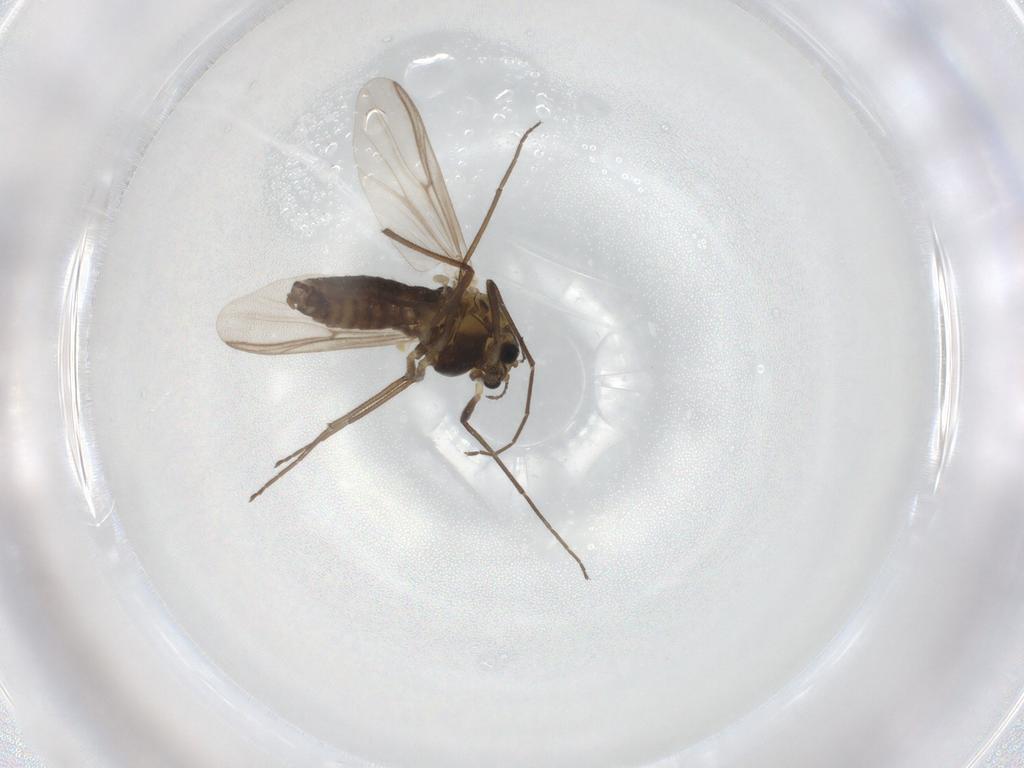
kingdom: Animalia
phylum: Arthropoda
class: Insecta
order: Diptera
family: Chironomidae
